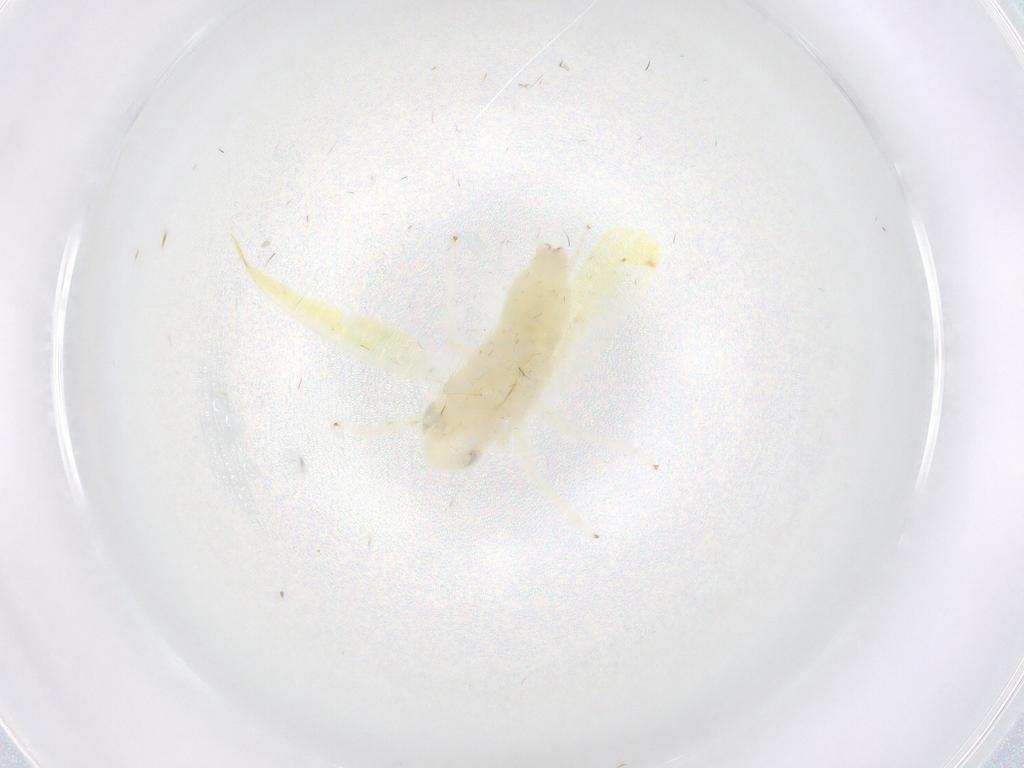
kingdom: Animalia
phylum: Arthropoda
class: Insecta
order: Hemiptera
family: Cicadellidae
